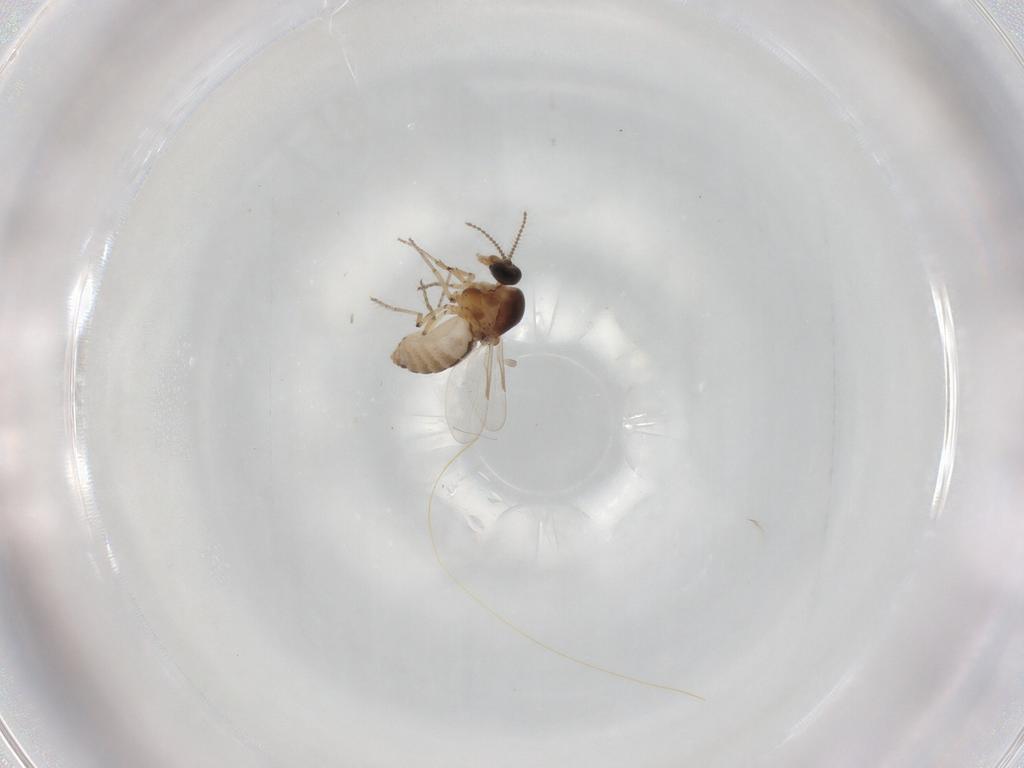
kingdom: Animalia
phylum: Arthropoda
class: Insecta
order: Diptera
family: Ceratopogonidae
